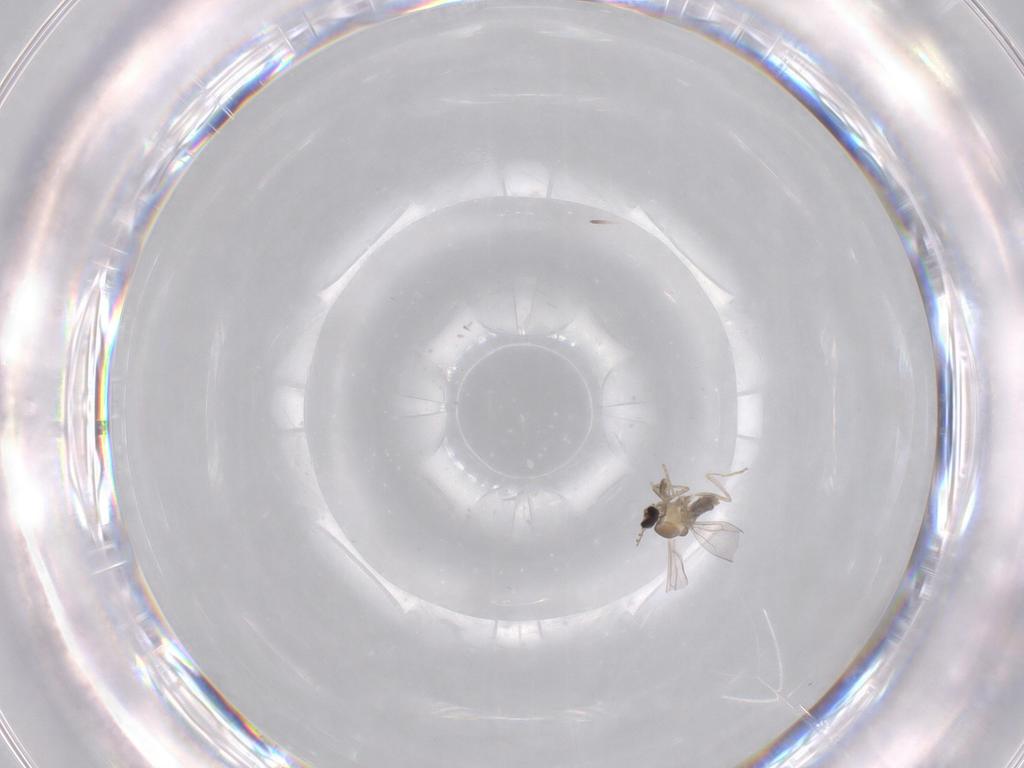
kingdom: Animalia
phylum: Arthropoda
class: Insecta
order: Diptera
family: Cecidomyiidae
